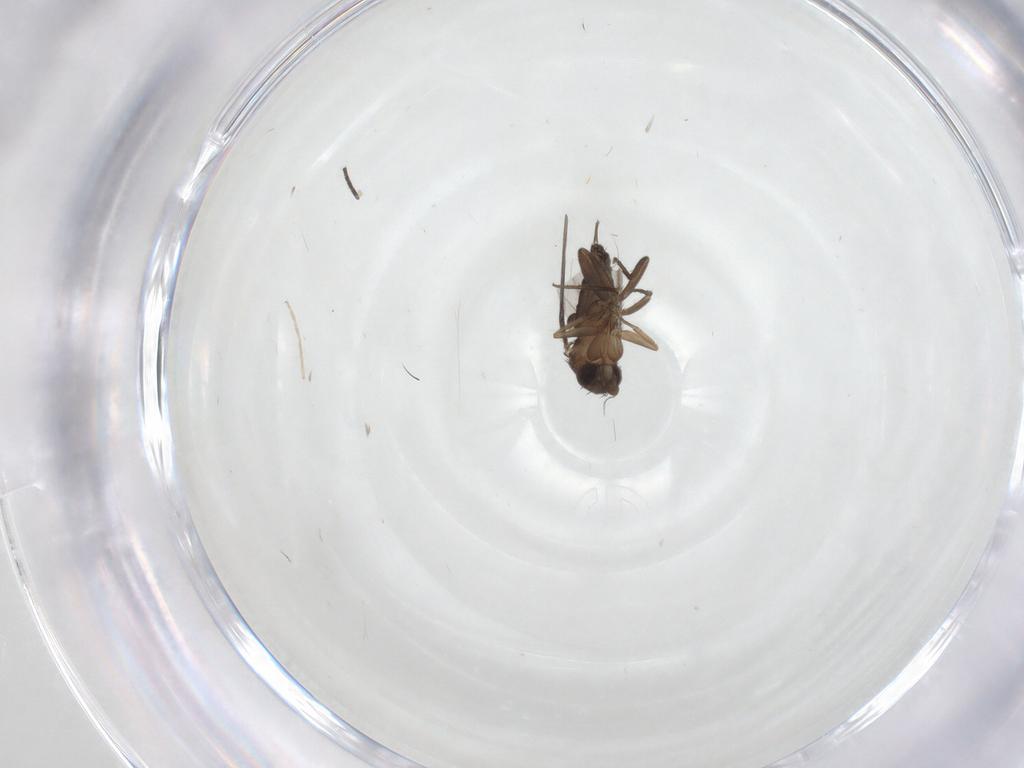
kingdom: Animalia
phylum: Arthropoda
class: Insecta
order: Diptera
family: Phoridae
